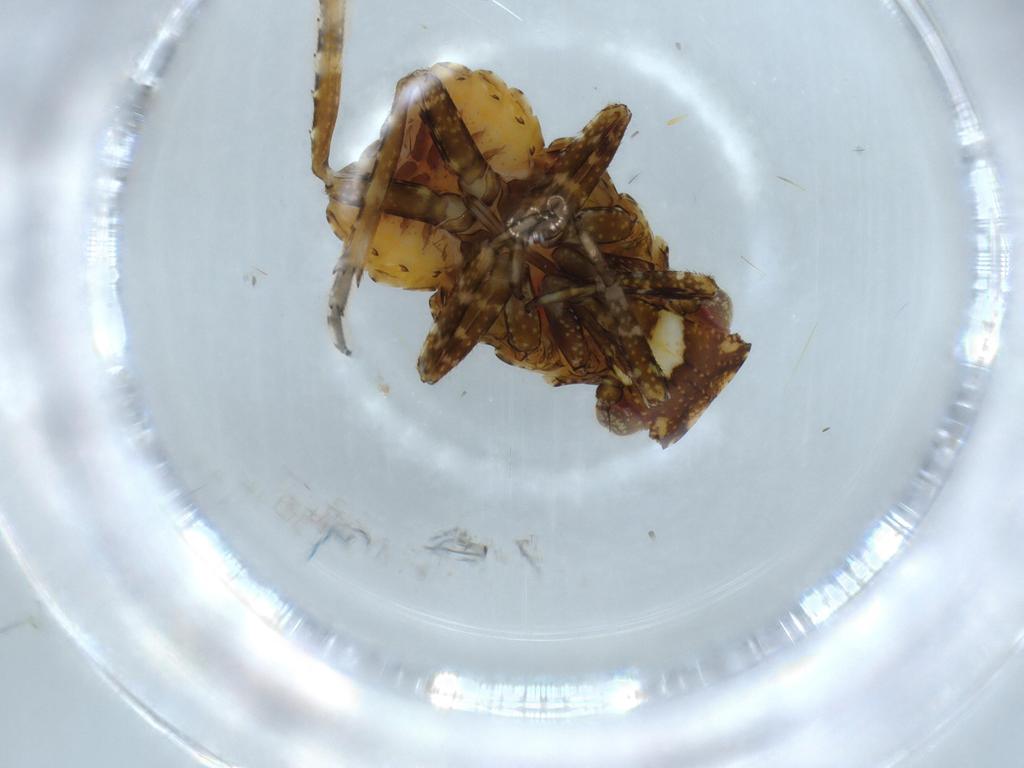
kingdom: Animalia
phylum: Arthropoda
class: Insecta
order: Hemiptera
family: Fulgoridae
